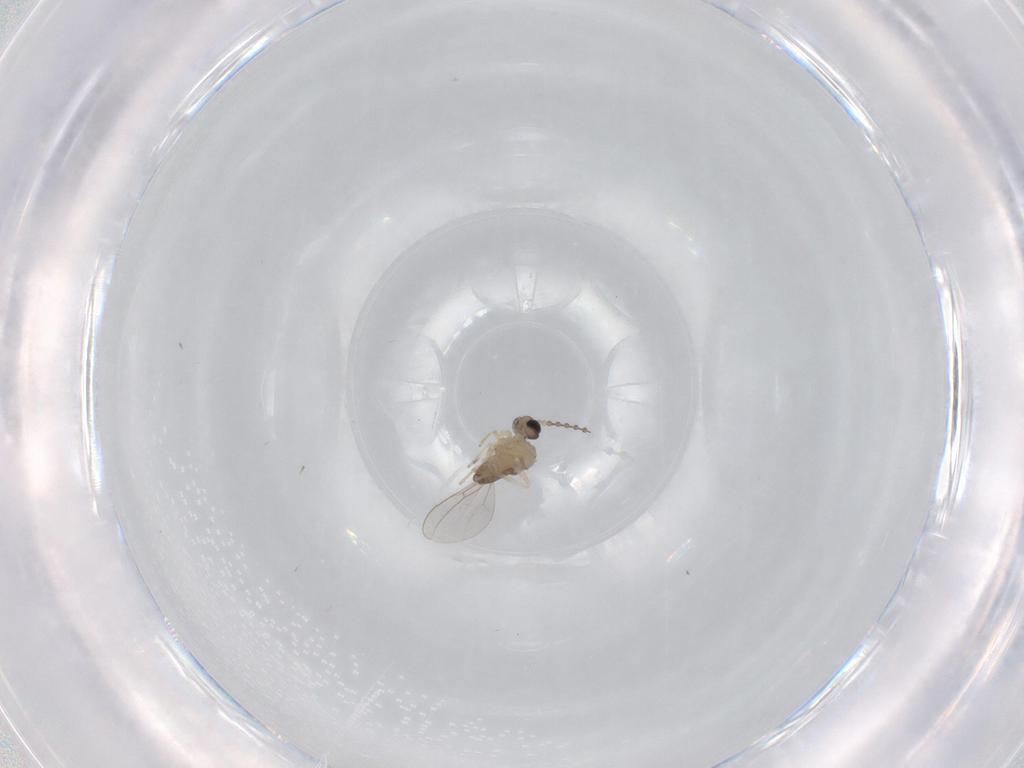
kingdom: Animalia
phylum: Arthropoda
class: Insecta
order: Diptera
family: Cecidomyiidae
